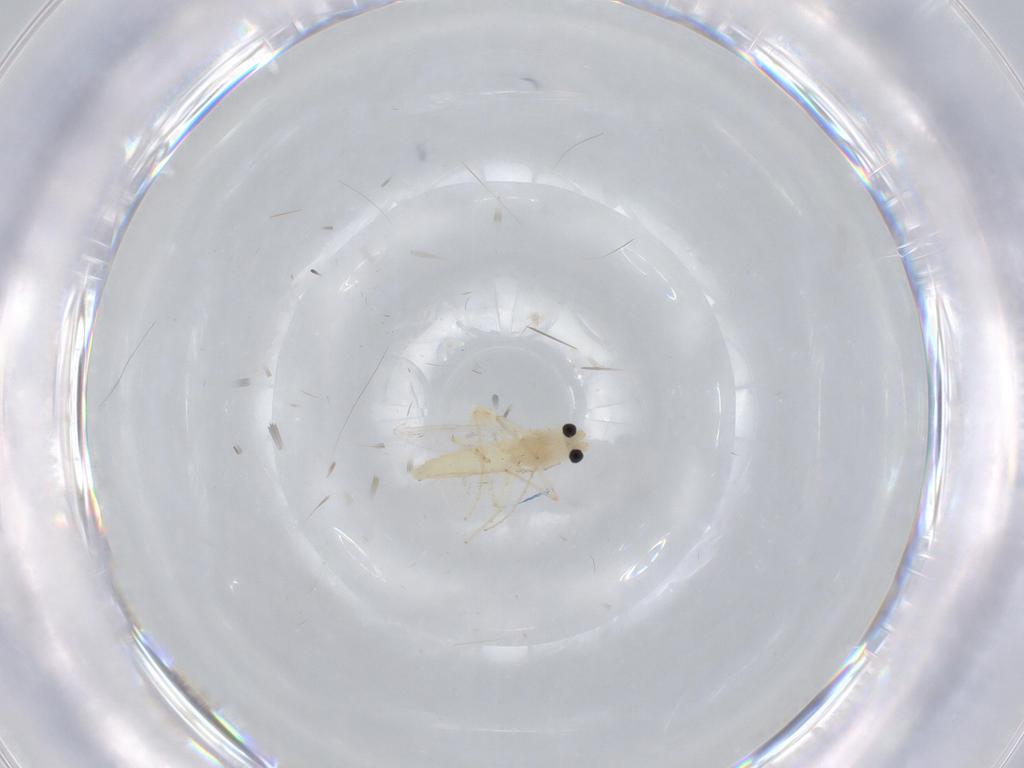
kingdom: Animalia
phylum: Arthropoda
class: Insecta
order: Diptera
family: Chironomidae
